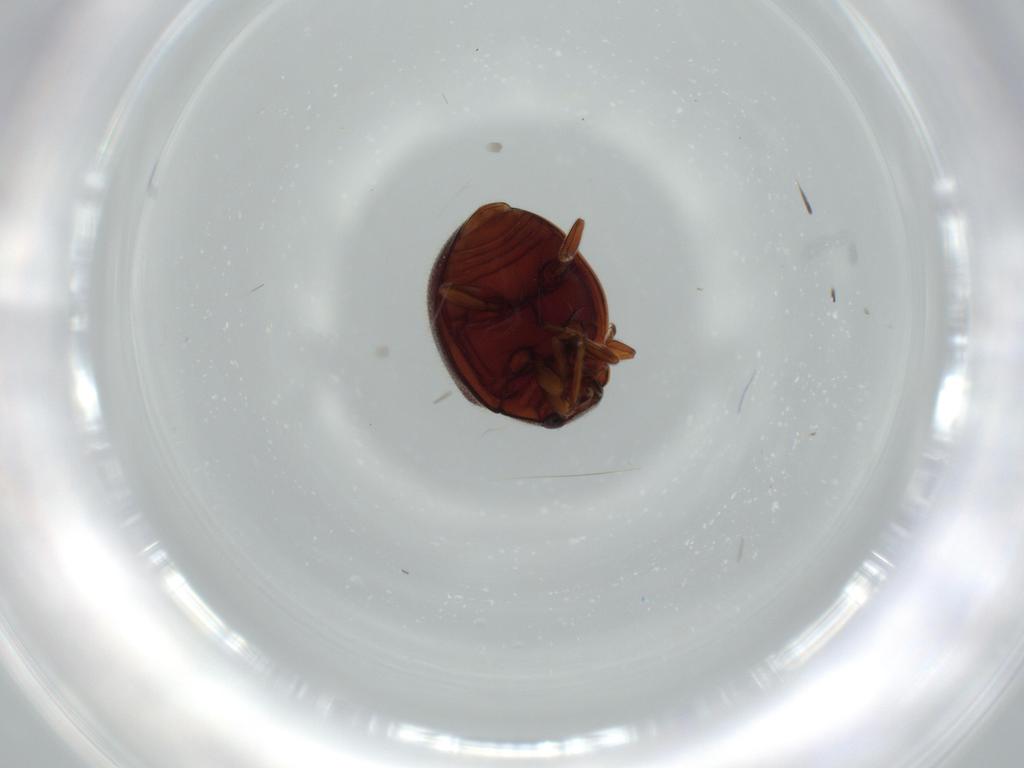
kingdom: Animalia
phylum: Arthropoda
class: Insecta
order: Coleoptera
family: Coccinellidae
